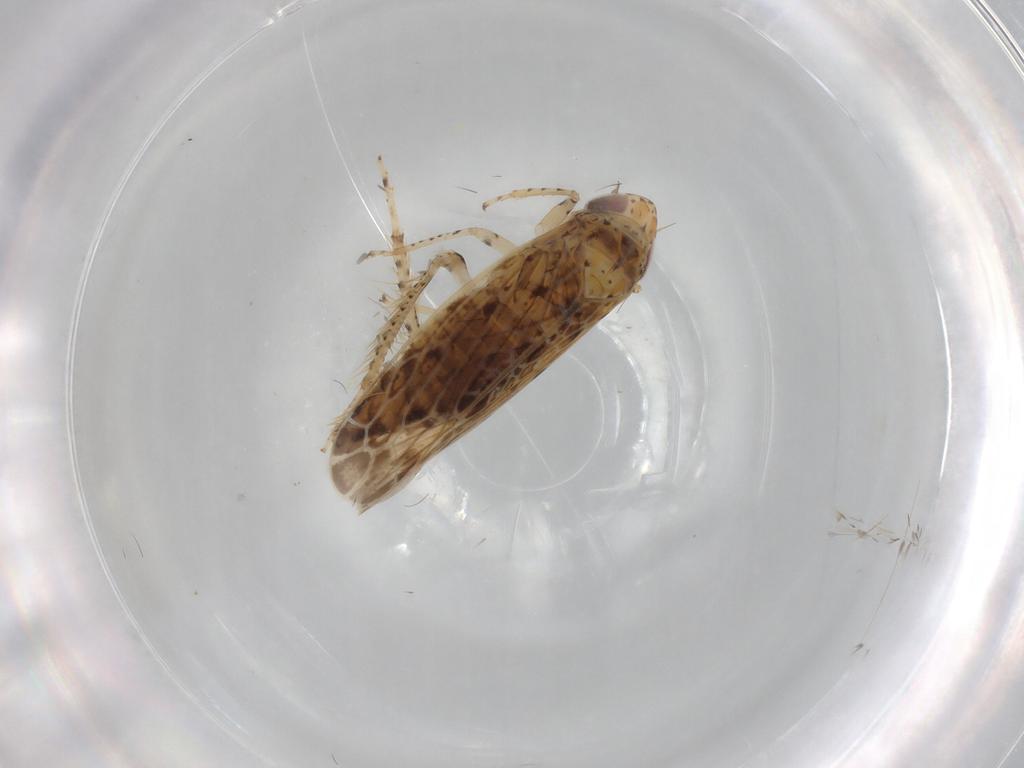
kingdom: Animalia
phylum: Arthropoda
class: Insecta
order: Hemiptera
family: Cicadellidae
